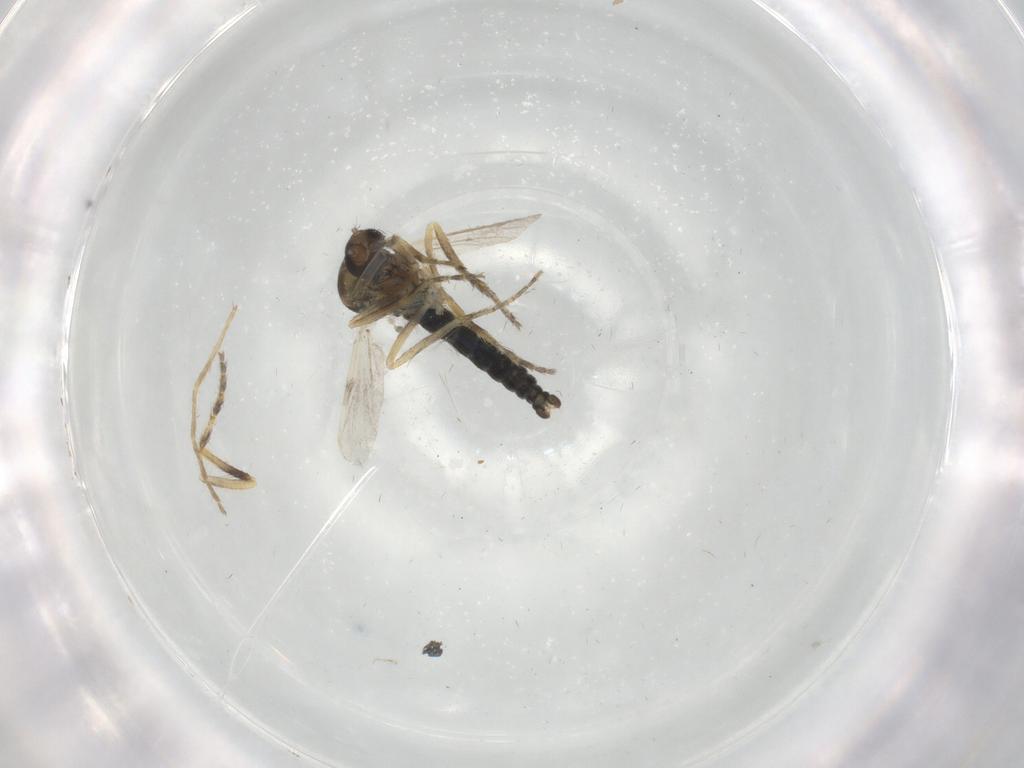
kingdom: Animalia
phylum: Arthropoda
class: Insecta
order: Diptera
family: Chironomidae
